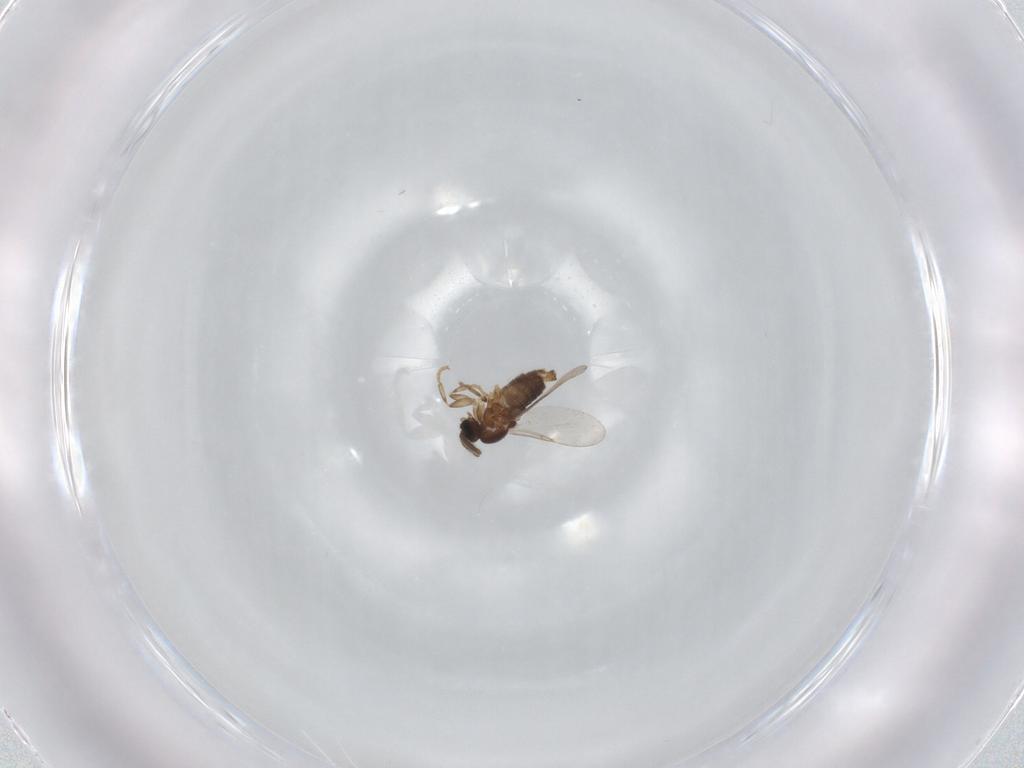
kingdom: Animalia
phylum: Arthropoda
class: Insecta
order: Diptera
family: Scatopsidae
